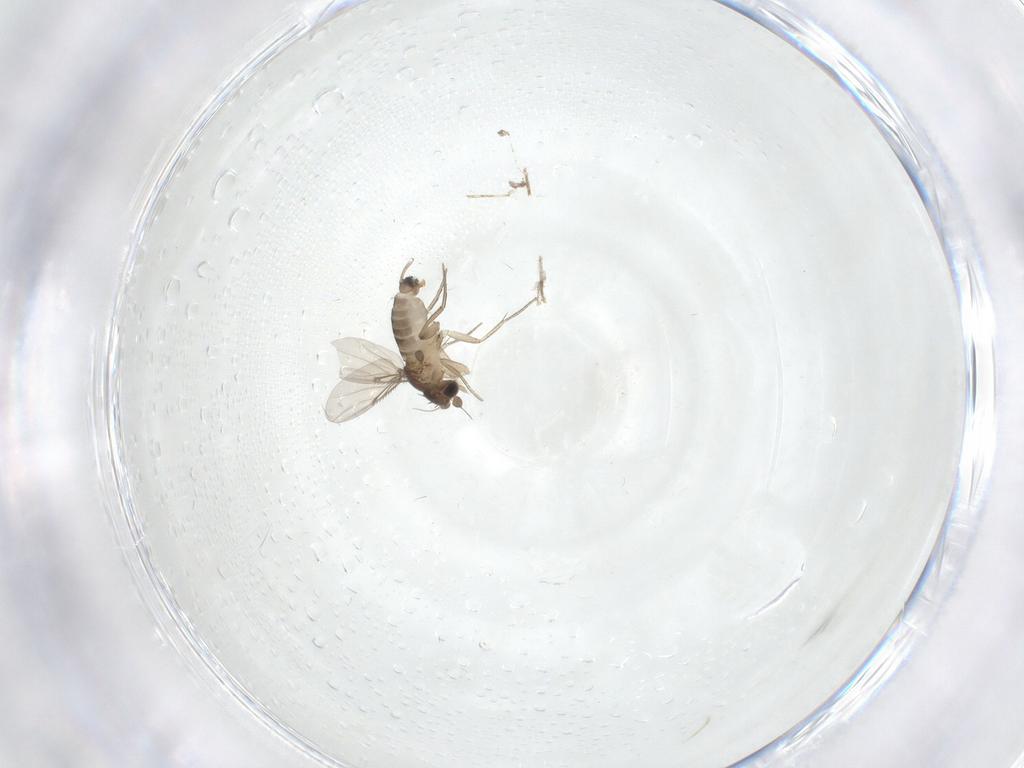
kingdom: Animalia
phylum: Arthropoda
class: Insecta
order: Diptera
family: Phoridae
